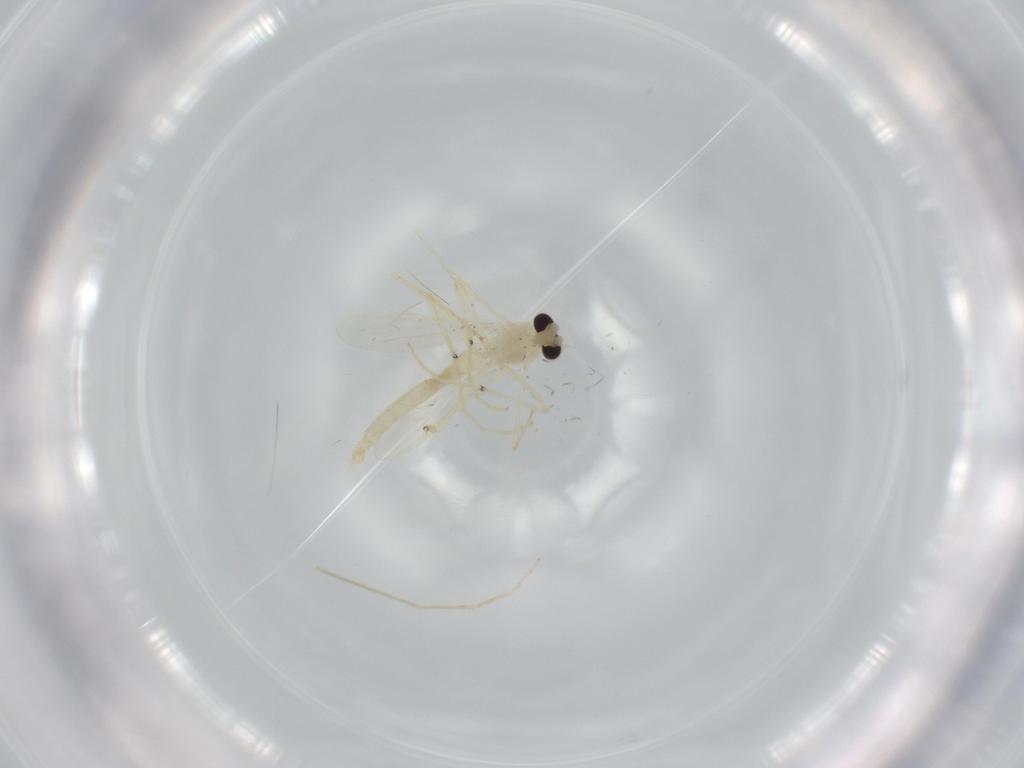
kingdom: Animalia
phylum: Arthropoda
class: Insecta
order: Diptera
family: Chironomidae
